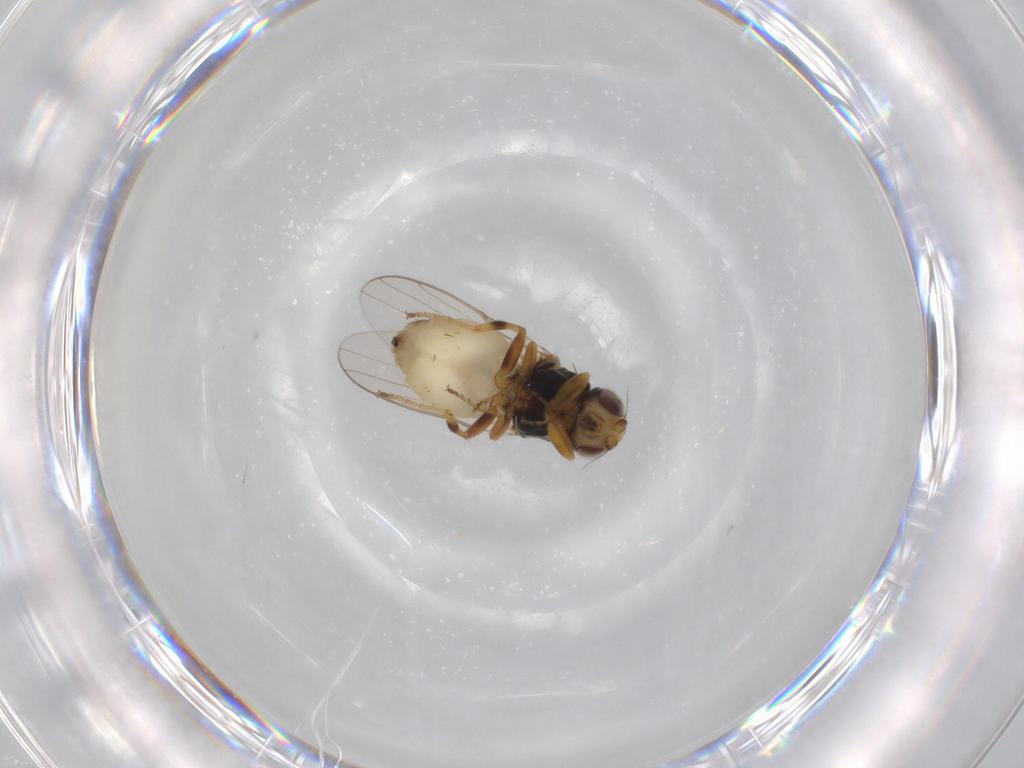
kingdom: Animalia
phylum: Arthropoda
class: Insecta
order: Diptera
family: Chloropidae
